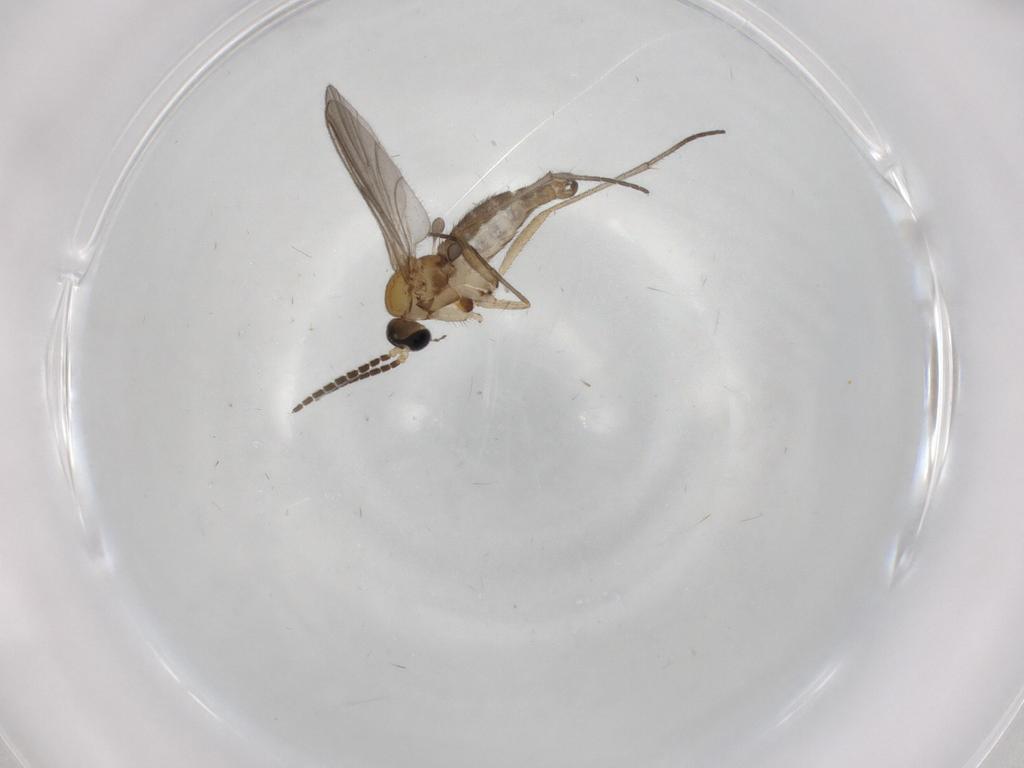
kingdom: Animalia
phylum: Arthropoda
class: Insecta
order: Diptera
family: Sciaridae
